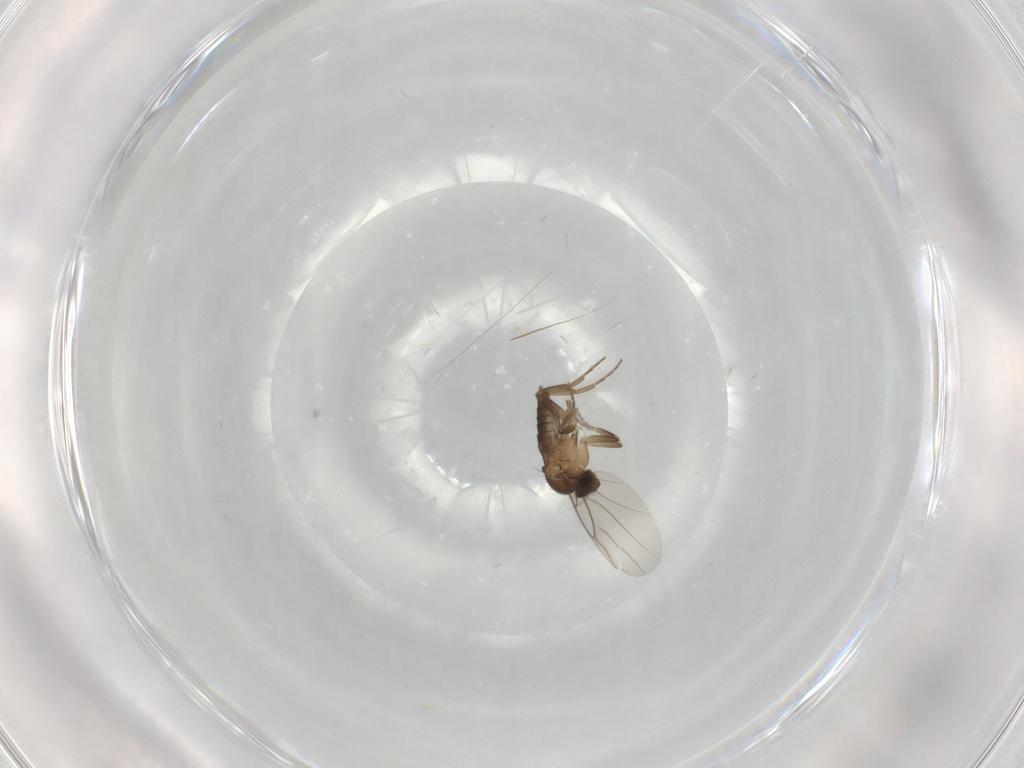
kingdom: Animalia
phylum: Arthropoda
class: Insecta
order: Diptera
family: Phoridae
